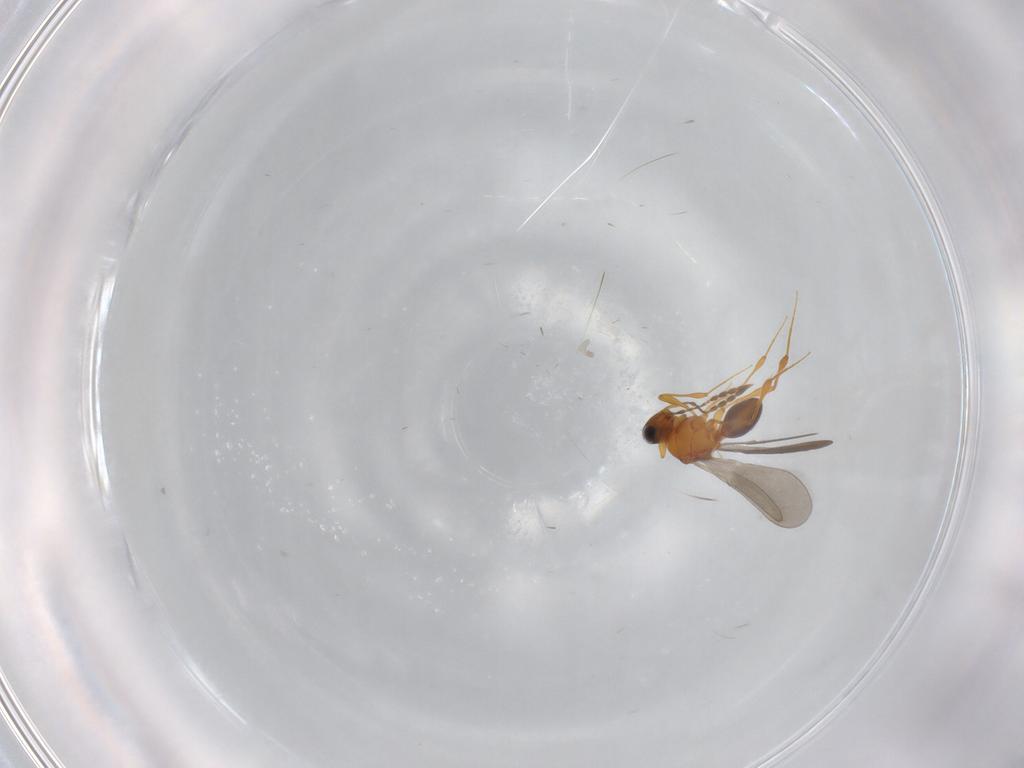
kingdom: Animalia
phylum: Arthropoda
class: Insecta
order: Hymenoptera
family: Platygastridae
